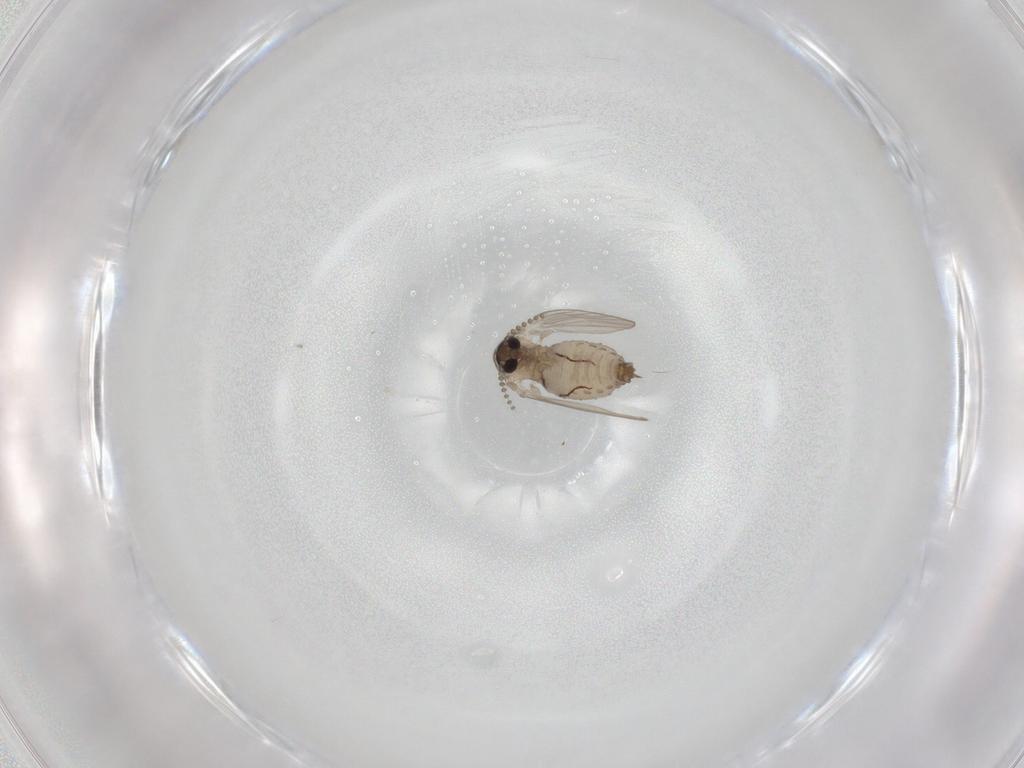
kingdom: Animalia
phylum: Arthropoda
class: Insecta
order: Diptera
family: Psychodidae
